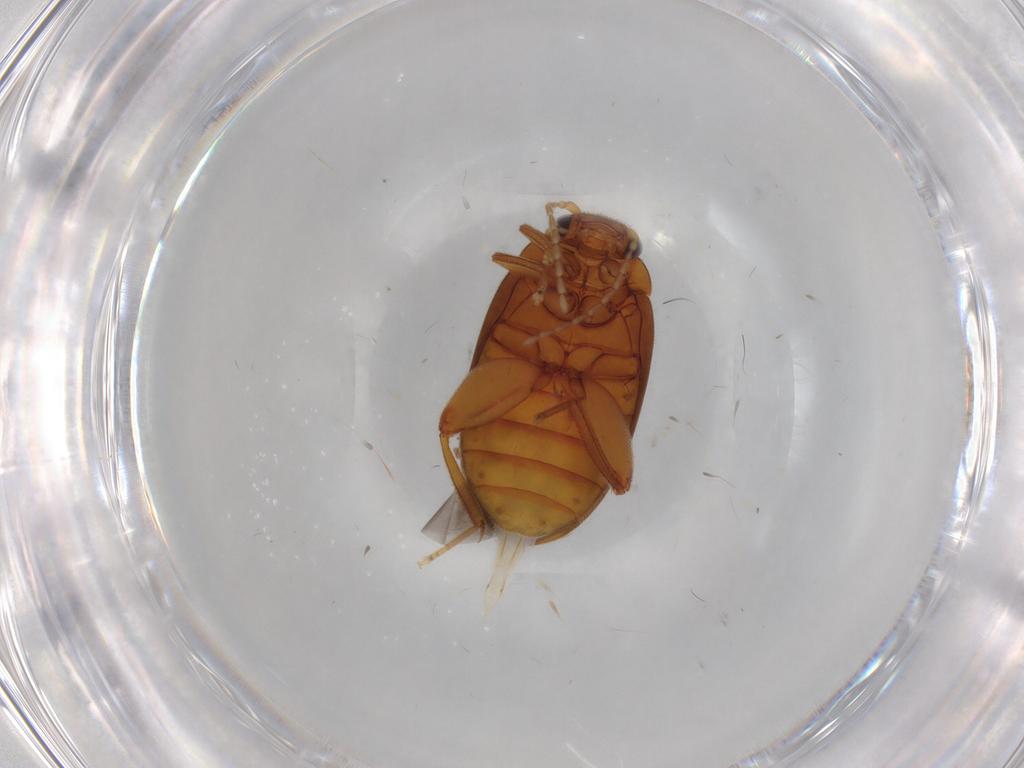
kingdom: Animalia
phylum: Arthropoda
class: Insecta
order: Coleoptera
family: Scirtidae
